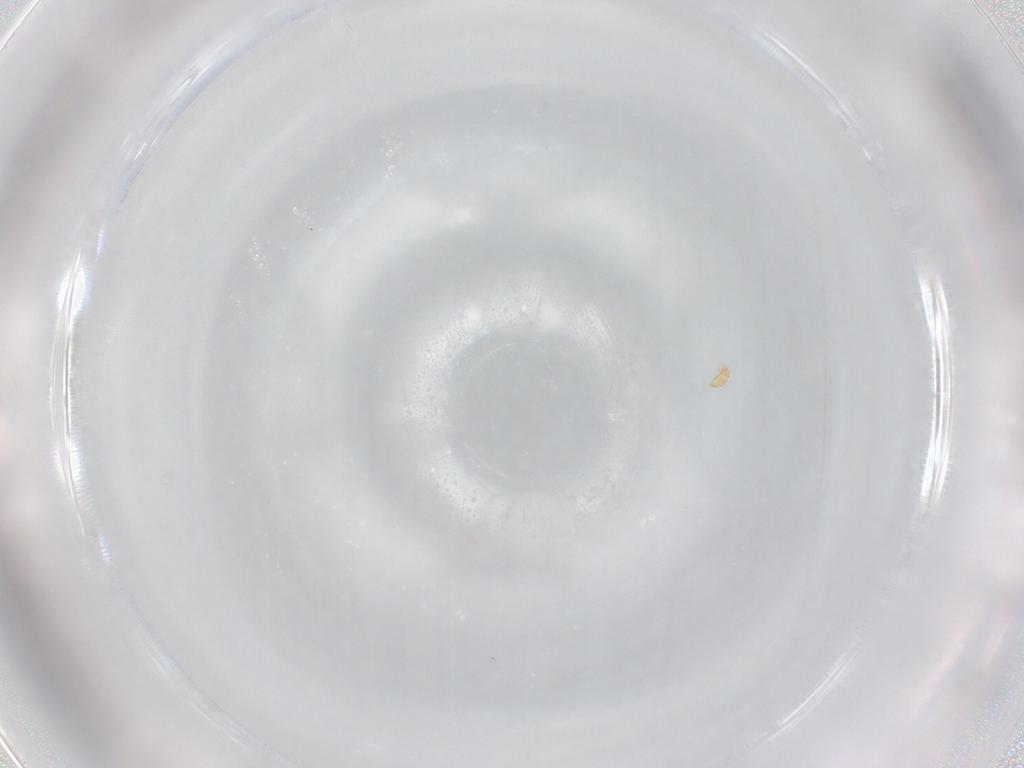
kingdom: Animalia
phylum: Arthropoda
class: Arachnida
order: Sarcoptiformes
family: Brachychthoniidae
